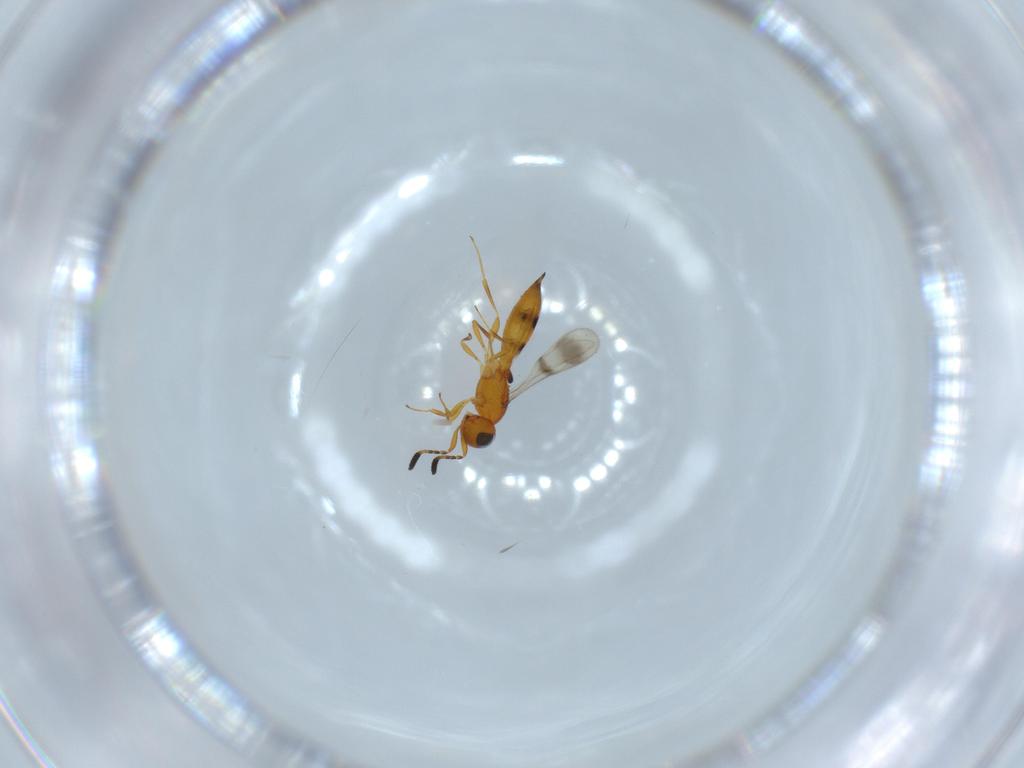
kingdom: Animalia
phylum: Arthropoda
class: Insecta
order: Hymenoptera
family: Scelionidae
